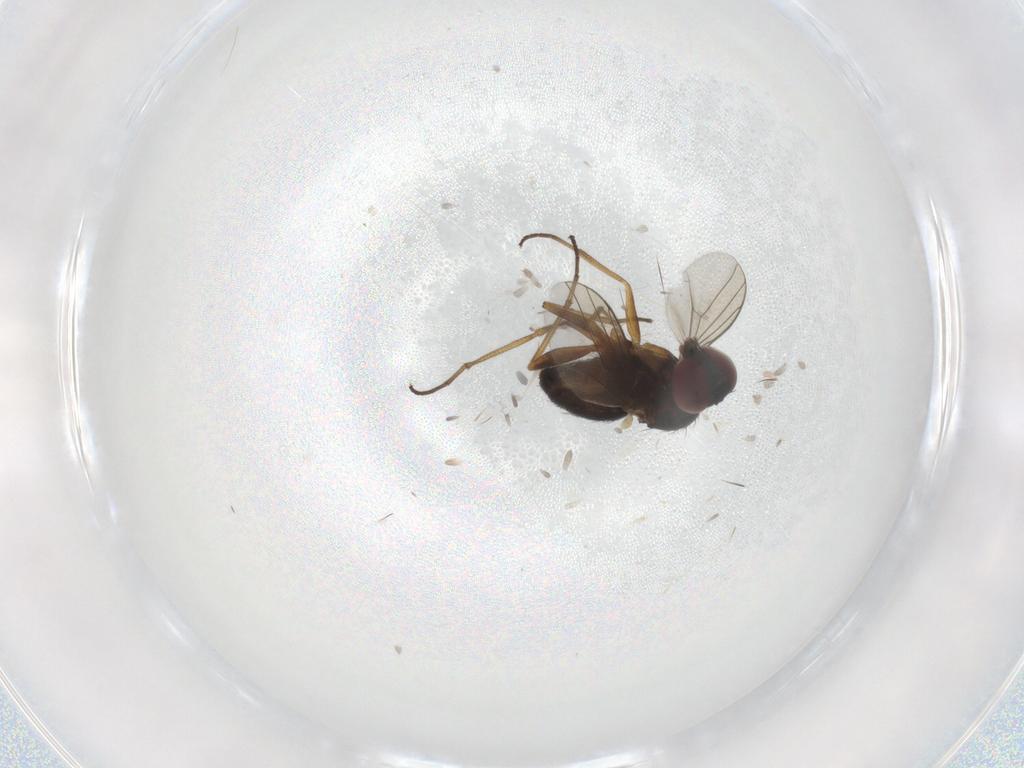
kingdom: Animalia
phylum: Arthropoda
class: Insecta
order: Diptera
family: Dolichopodidae
